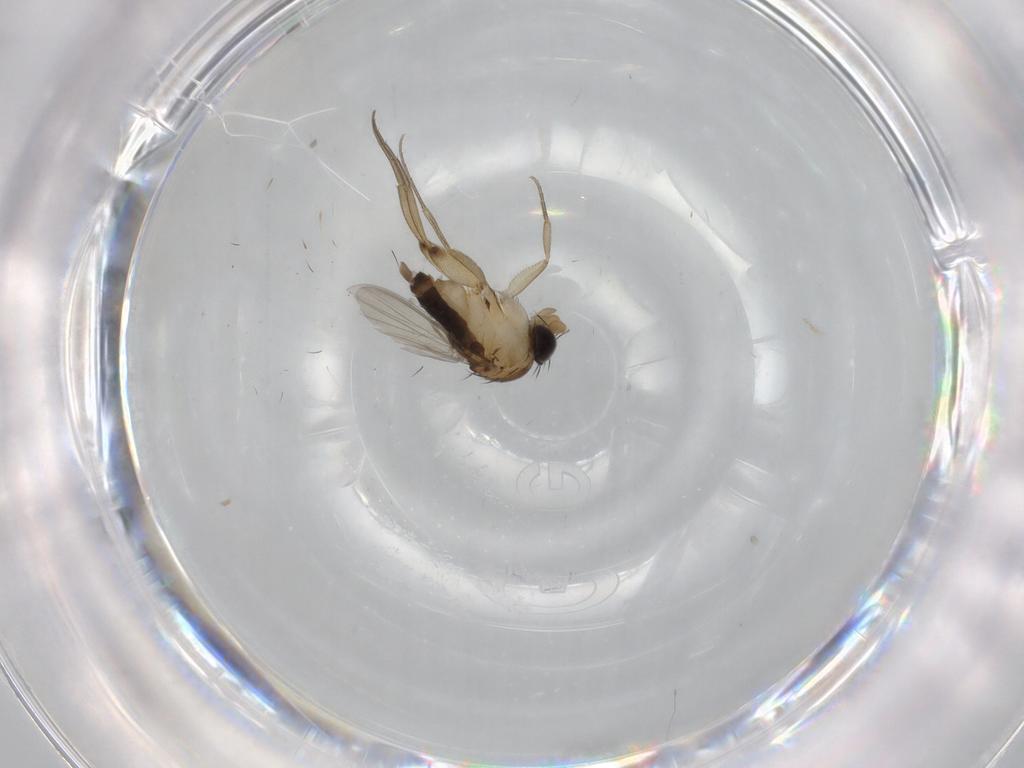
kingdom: Animalia
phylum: Arthropoda
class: Insecta
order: Diptera
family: Phoridae
